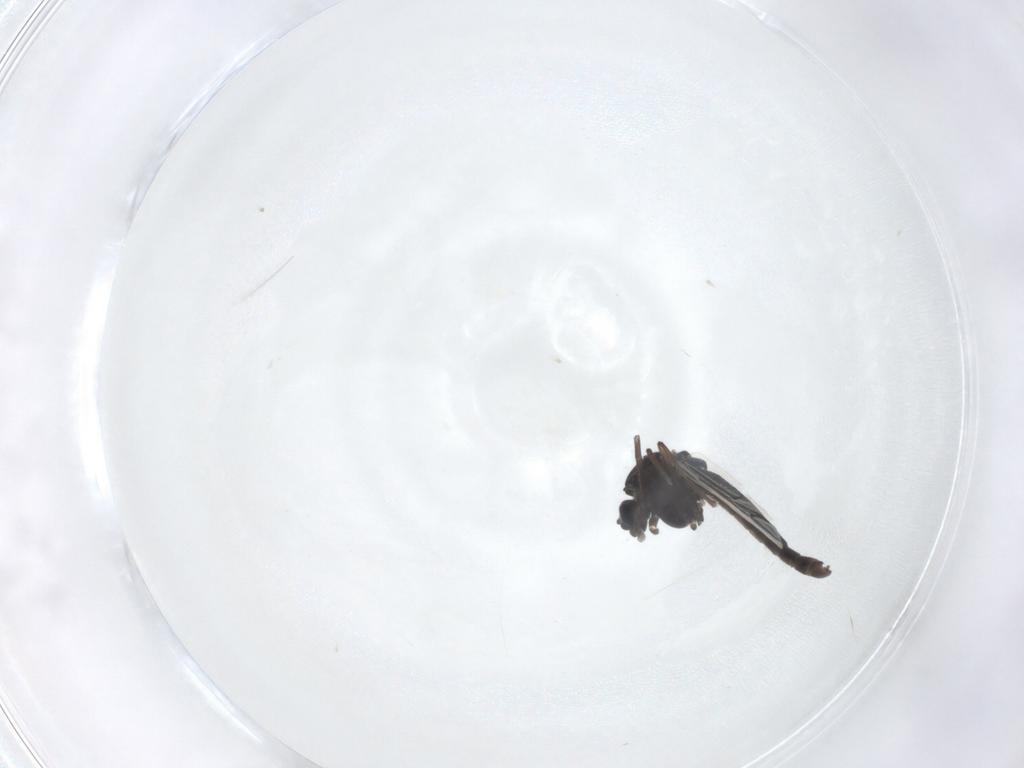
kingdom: Animalia
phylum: Arthropoda
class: Insecta
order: Diptera
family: Chironomidae
